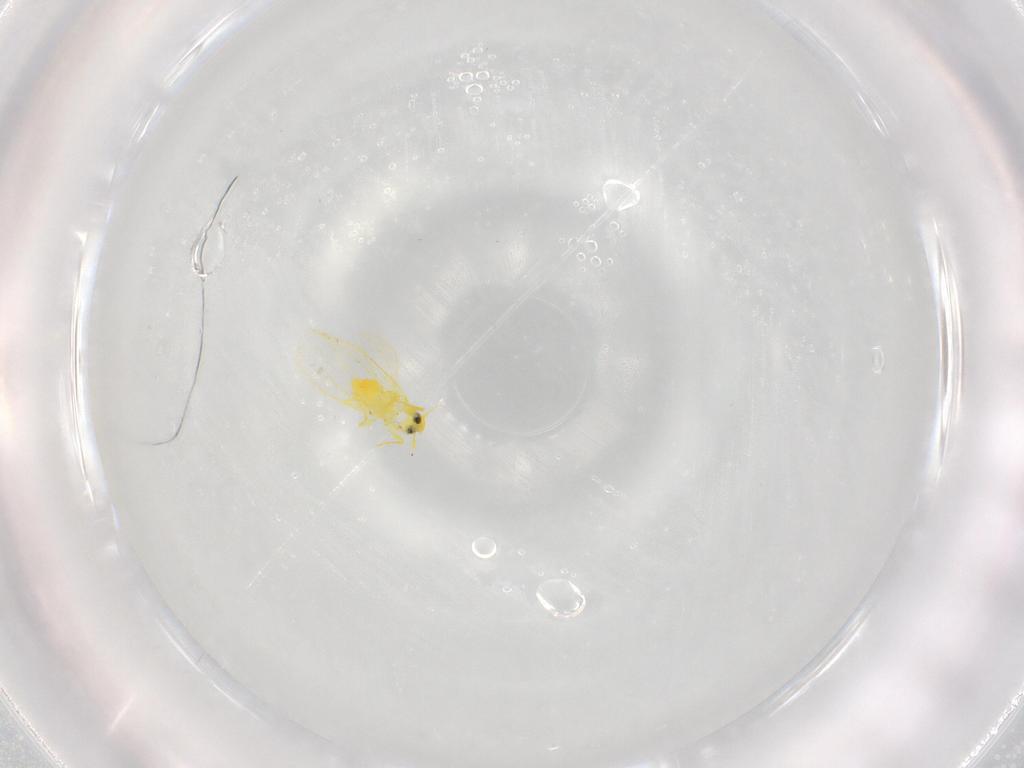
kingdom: Animalia
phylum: Arthropoda
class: Insecta
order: Hemiptera
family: Aleyrodidae
